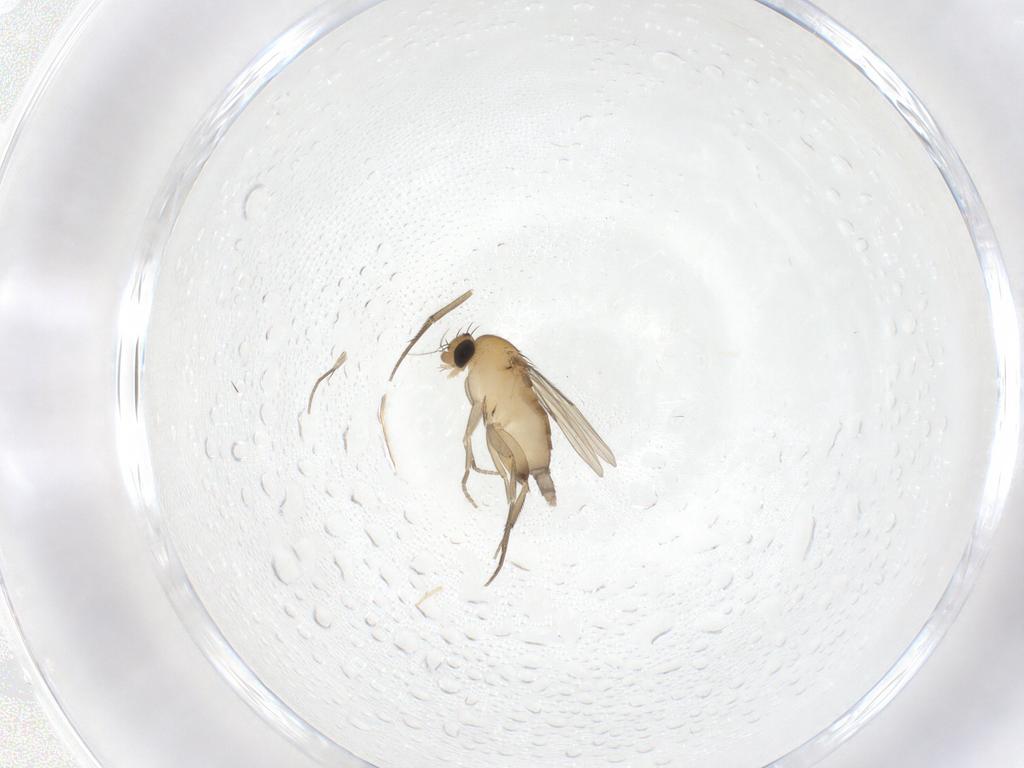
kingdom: Animalia
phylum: Arthropoda
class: Insecta
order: Diptera
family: Phoridae
